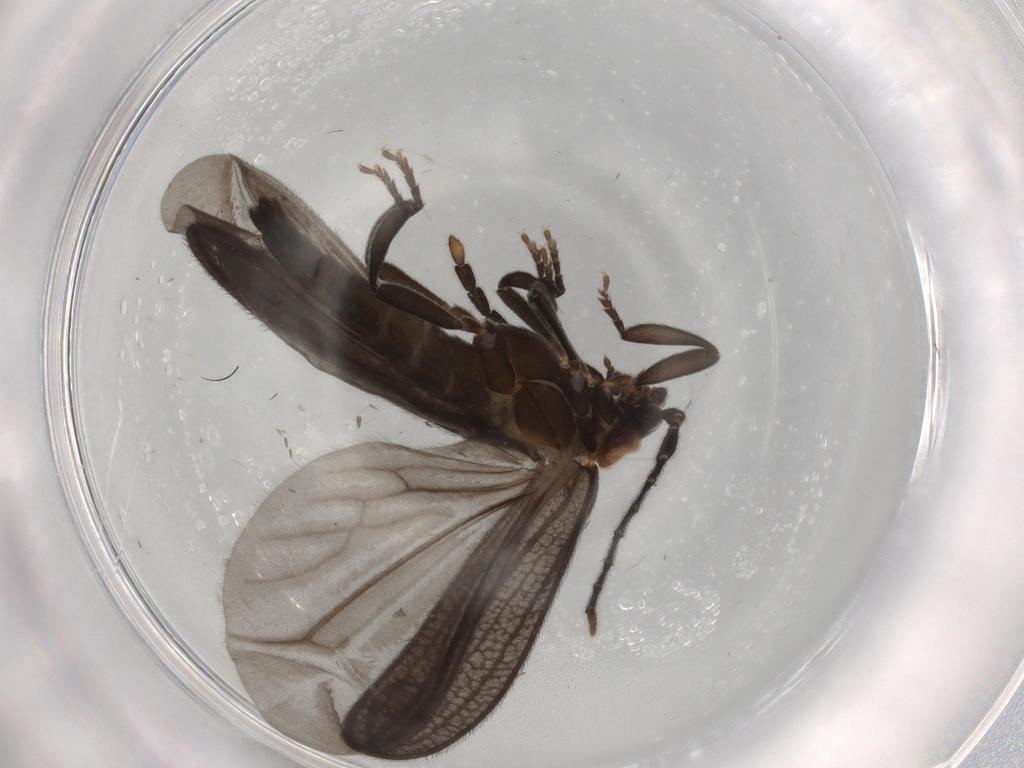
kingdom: Animalia
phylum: Arthropoda
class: Insecta
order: Coleoptera
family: Lycidae
